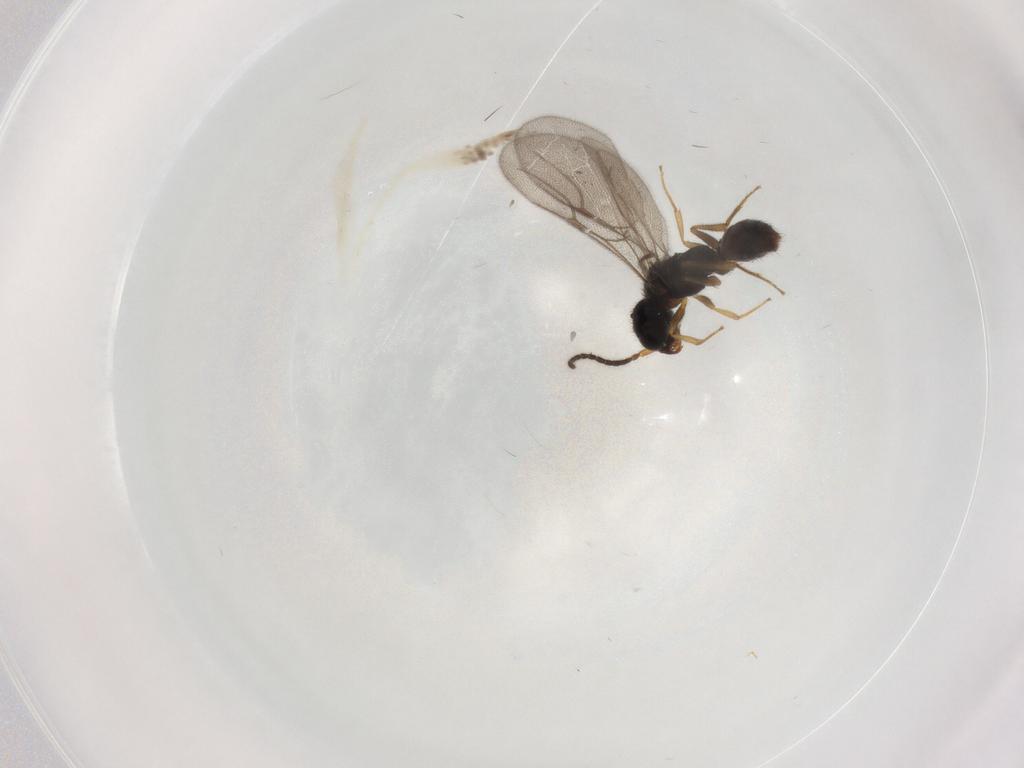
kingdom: Animalia
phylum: Arthropoda
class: Insecta
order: Hymenoptera
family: Bethylidae
